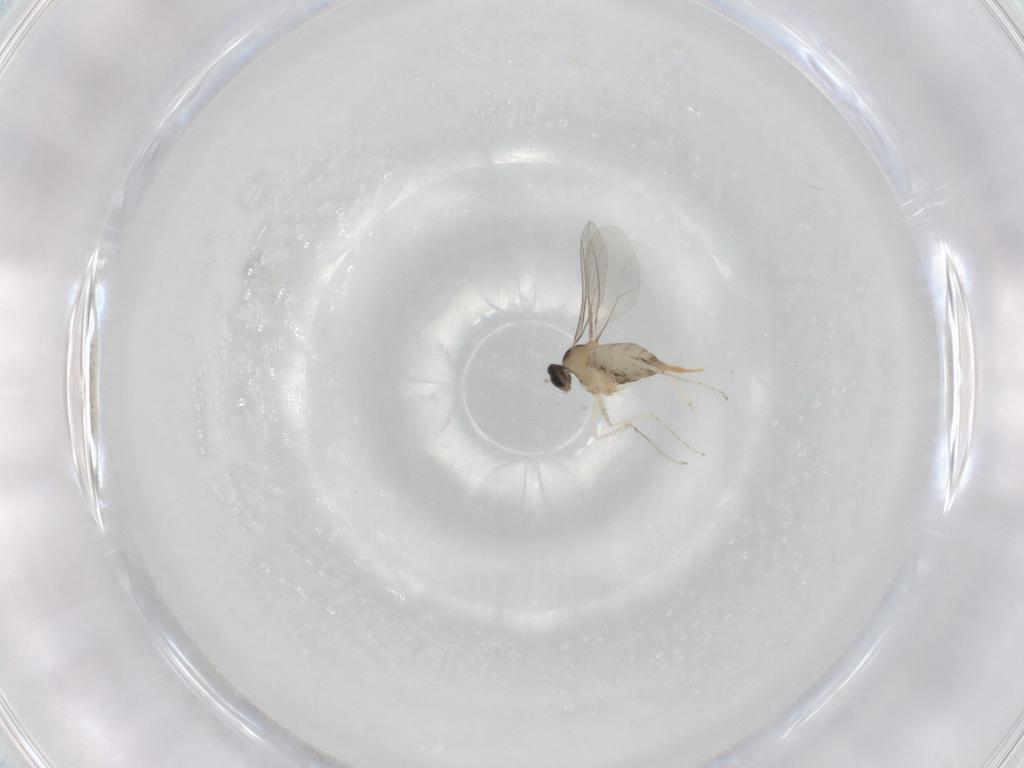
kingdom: Animalia
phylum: Arthropoda
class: Insecta
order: Diptera
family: Cecidomyiidae
